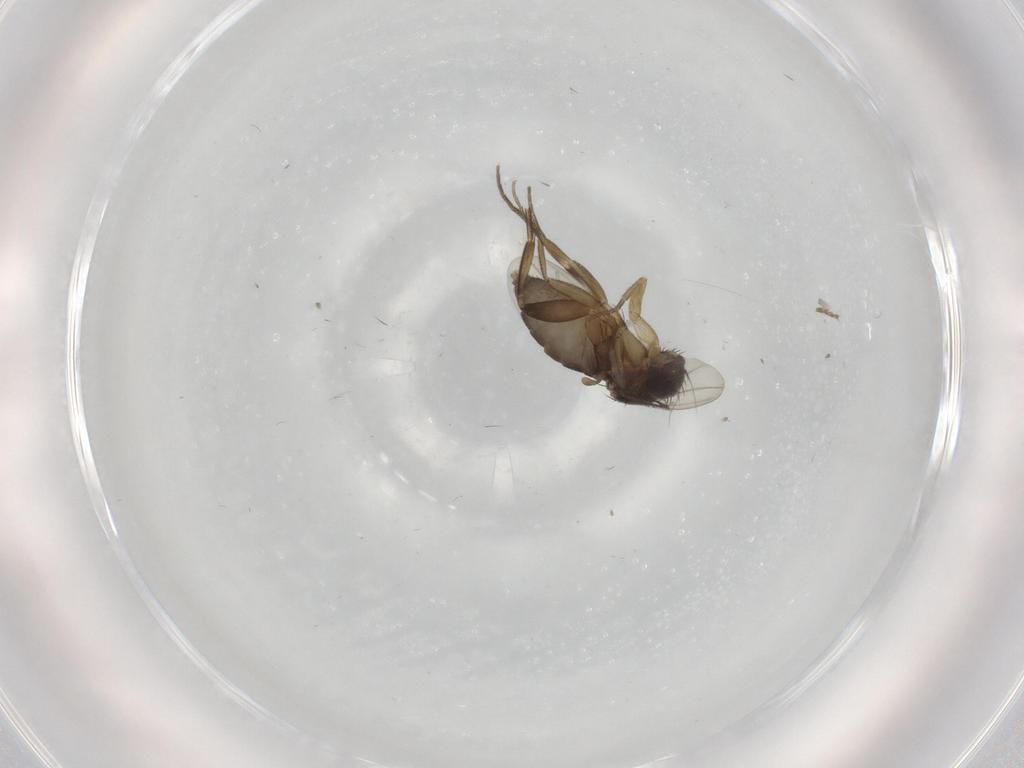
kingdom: Animalia
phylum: Arthropoda
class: Insecta
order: Diptera
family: Phoridae
